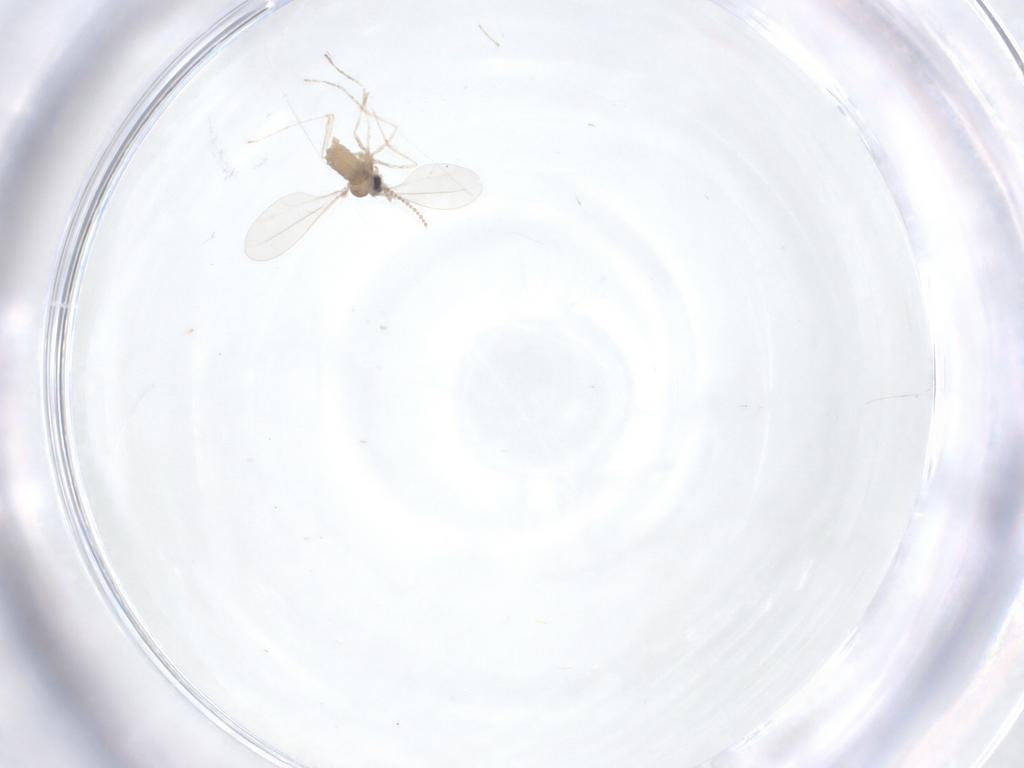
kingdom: Animalia
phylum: Arthropoda
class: Insecta
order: Diptera
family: Cecidomyiidae
